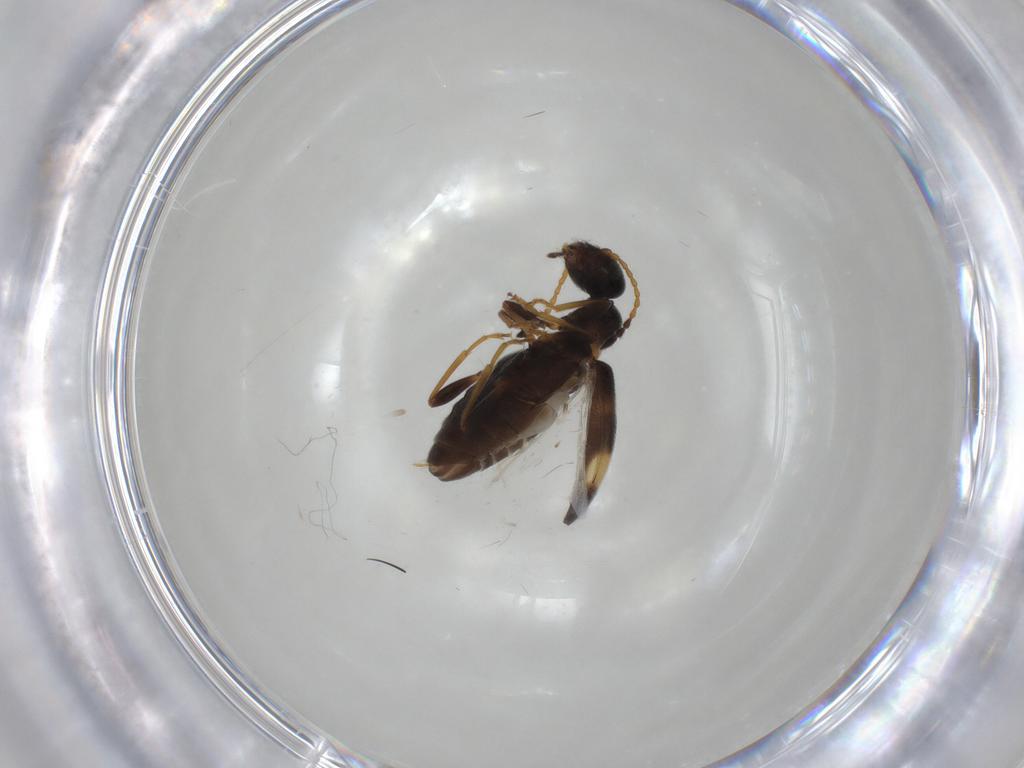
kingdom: Animalia
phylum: Arthropoda
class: Insecta
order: Coleoptera
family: Anthicidae
